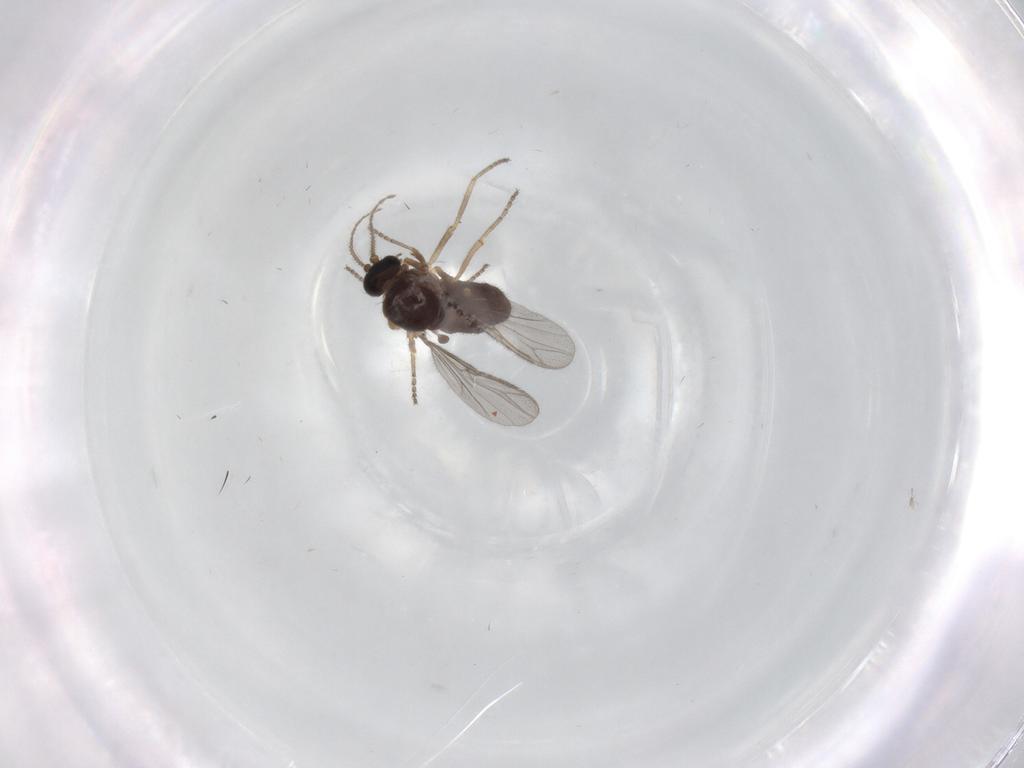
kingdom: Animalia
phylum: Arthropoda
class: Insecta
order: Diptera
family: Ceratopogonidae
